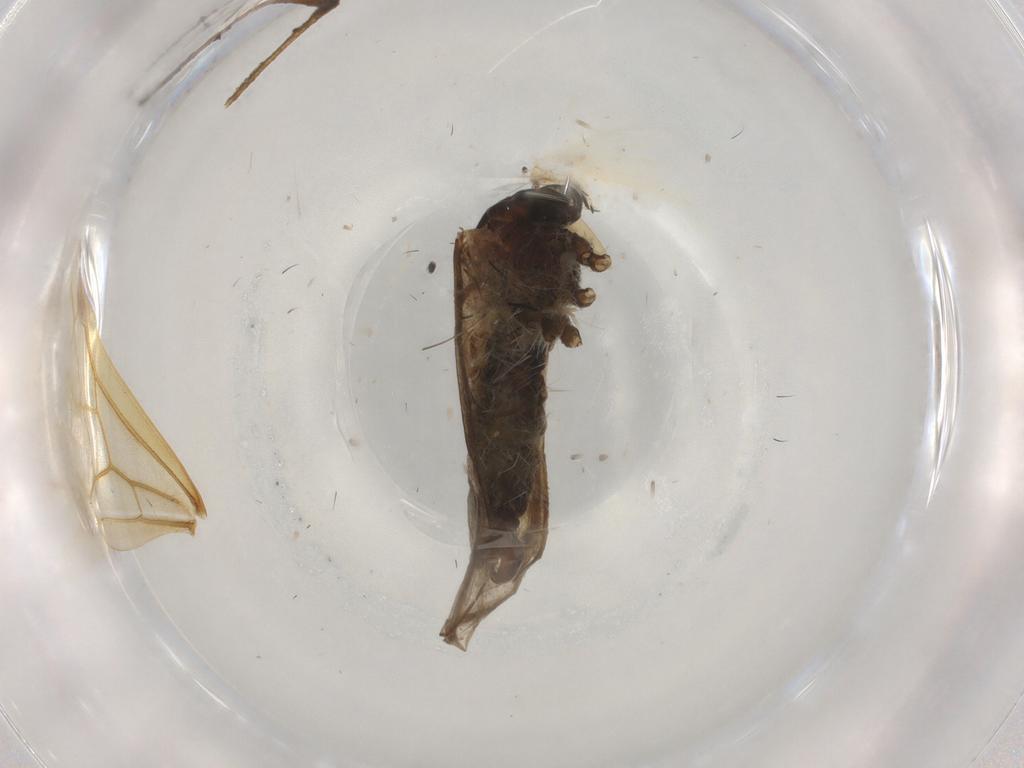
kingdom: Animalia
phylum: Arthropoda
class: Insecta
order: Diptera
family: Cecidomyiidae
